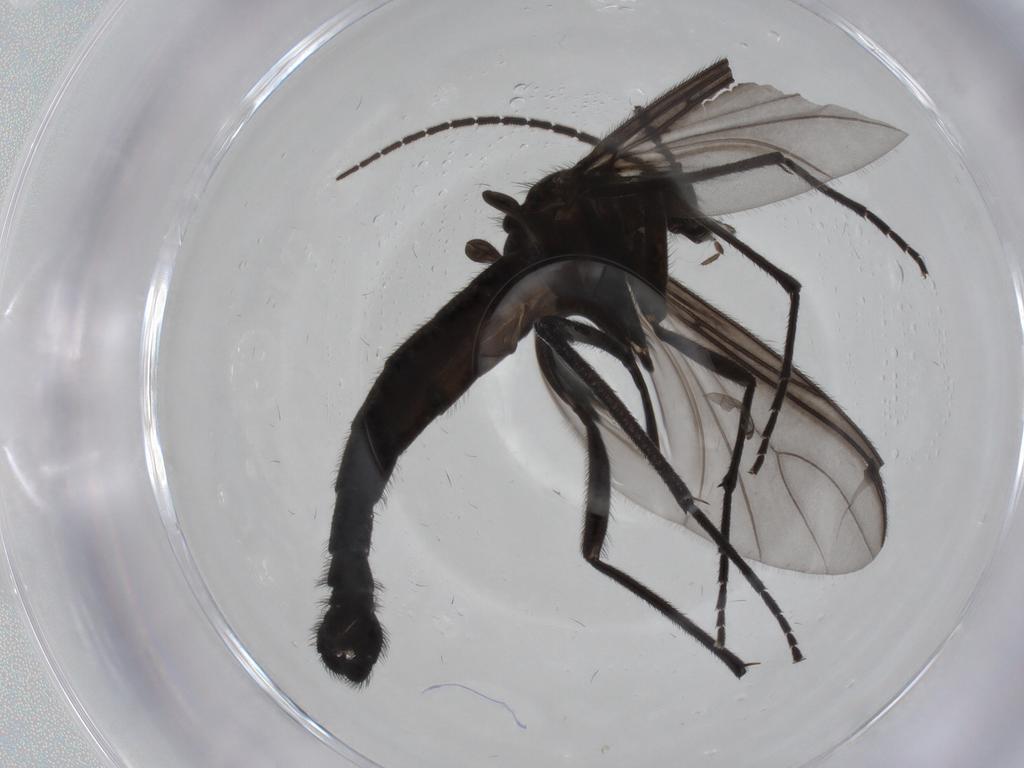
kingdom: Animalia
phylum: Arthropoda
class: Insecta
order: Diptera
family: Chironomidae
